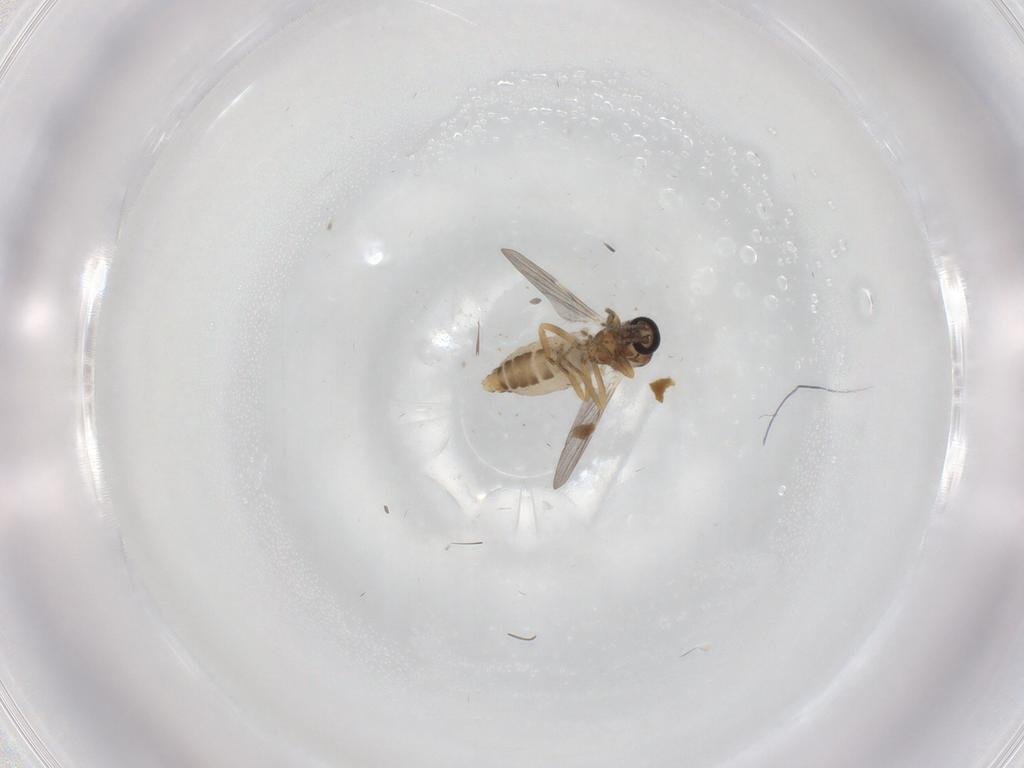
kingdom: Animalia
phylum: Arthropoda
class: Insecta
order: Diptera
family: Ceratopogonidae
